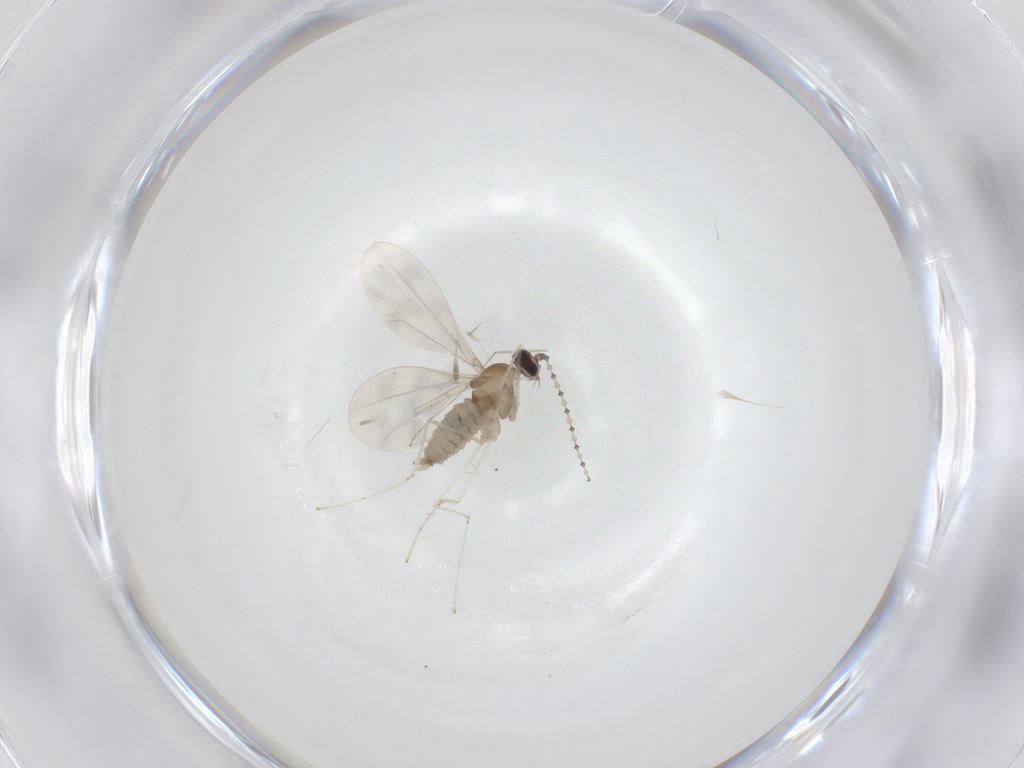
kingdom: Animalia
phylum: Arthropoda
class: Insecta
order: Diptera
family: Cecidomyiidae
